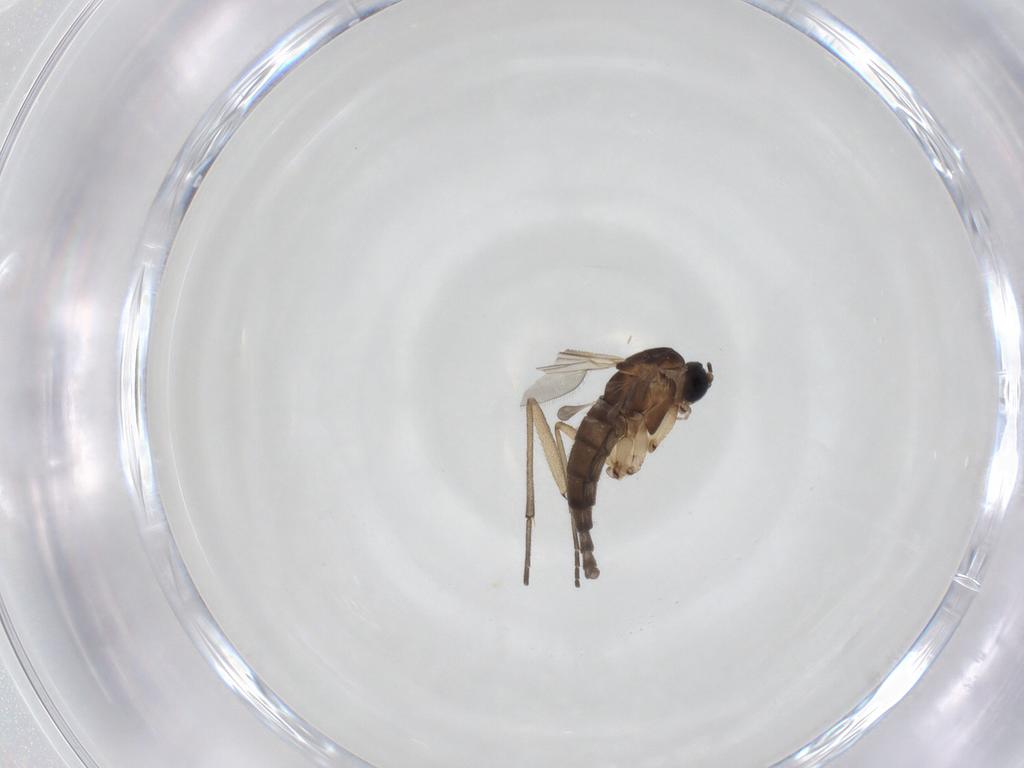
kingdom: Animalia
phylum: Arthropoda
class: Insecta
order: Diptera
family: Sciaridae
